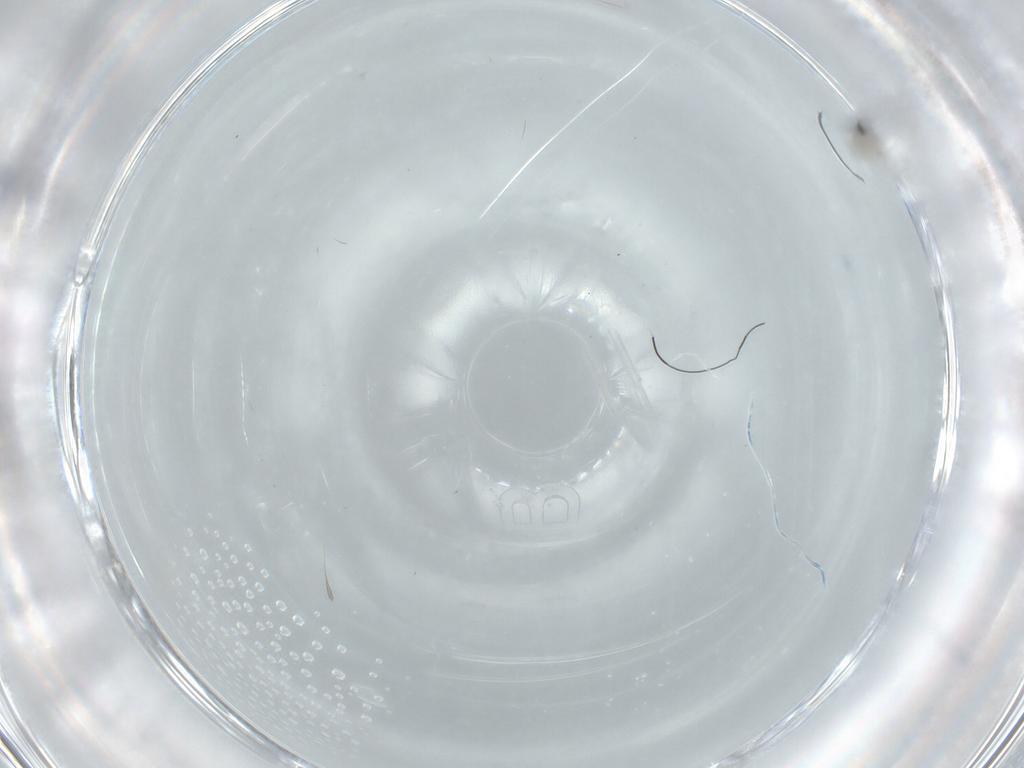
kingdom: Animalia
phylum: Arthropoda
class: Insecta
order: Diptera
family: Cecidomyiidae
